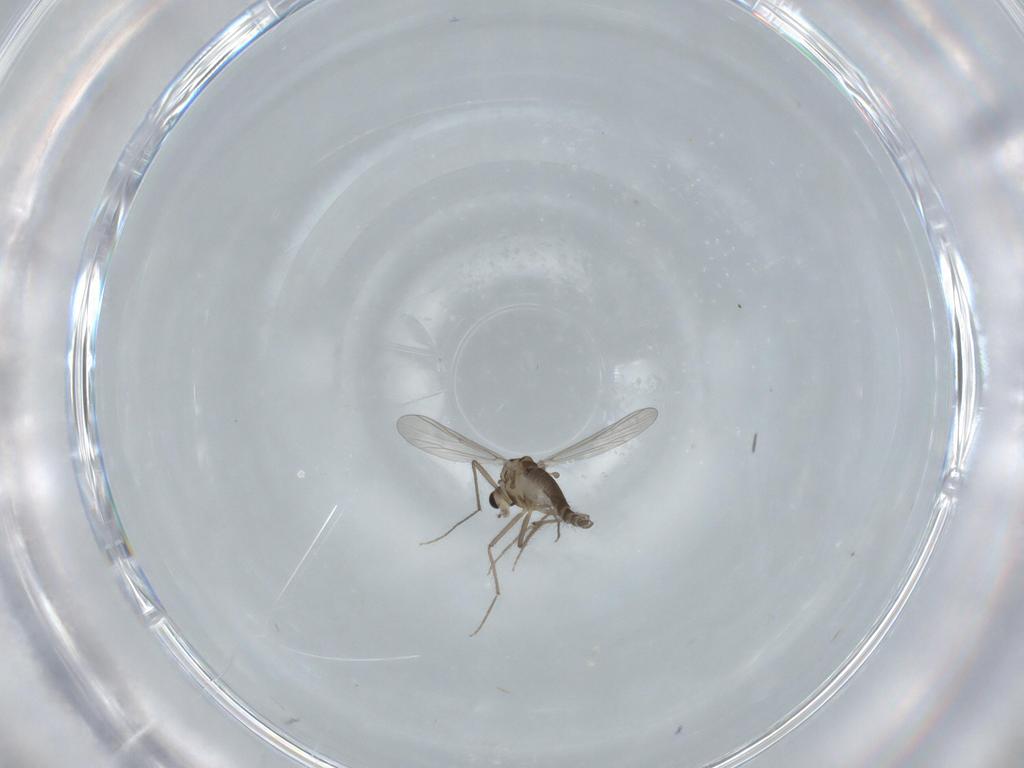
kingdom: Animalia
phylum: Arthropoda
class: Insecta
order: Diptera
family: Chironomidae
